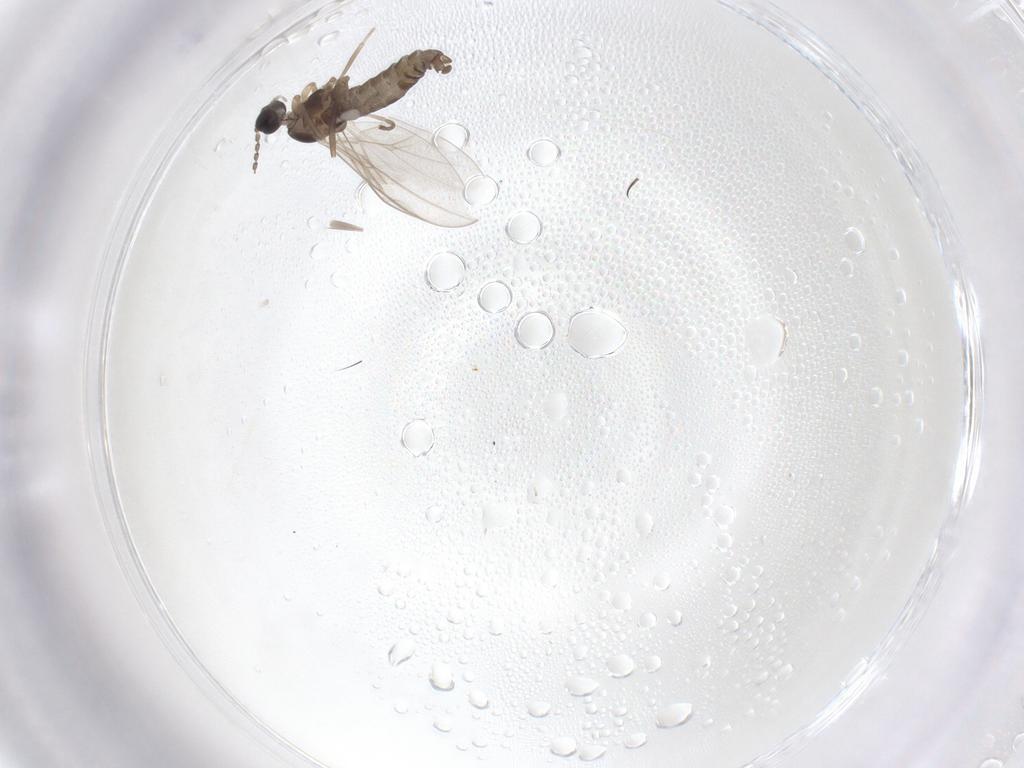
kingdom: Animalia
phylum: Arthropoda
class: Insecta
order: Diptera
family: Cecidomyiidae
